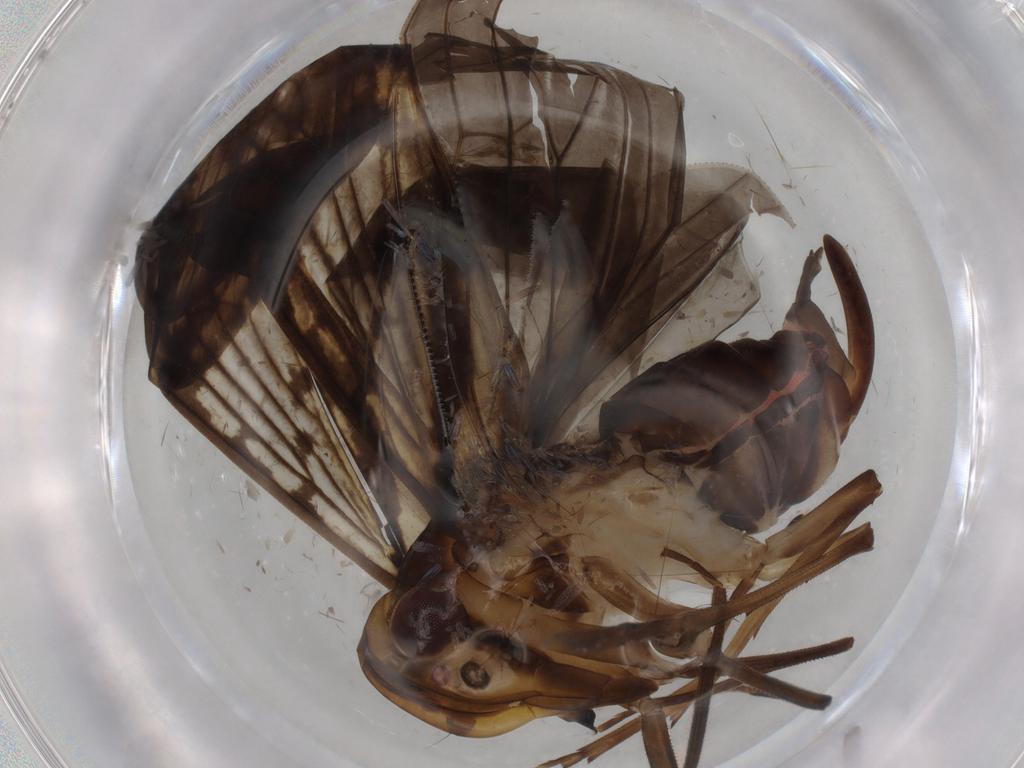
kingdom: Animalia
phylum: Arthropoda
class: Insecta
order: Hemiptera
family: Cixiidae
